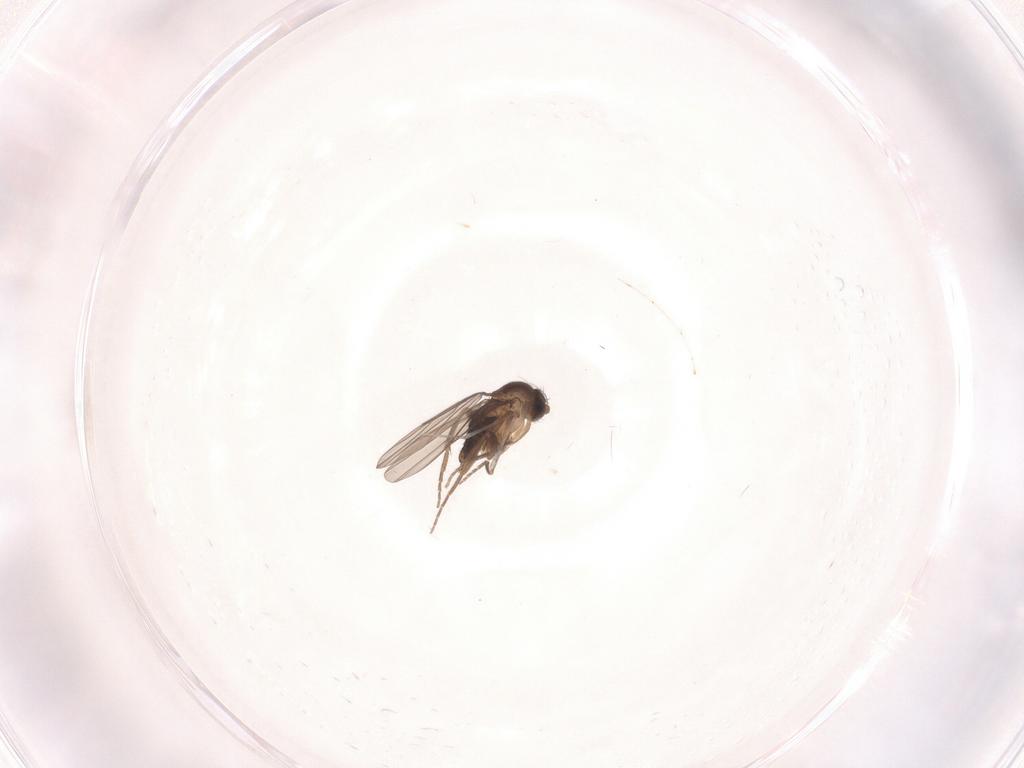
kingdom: Animalia
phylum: Arthropoda
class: Insecta
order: Diptera
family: Phoridae
